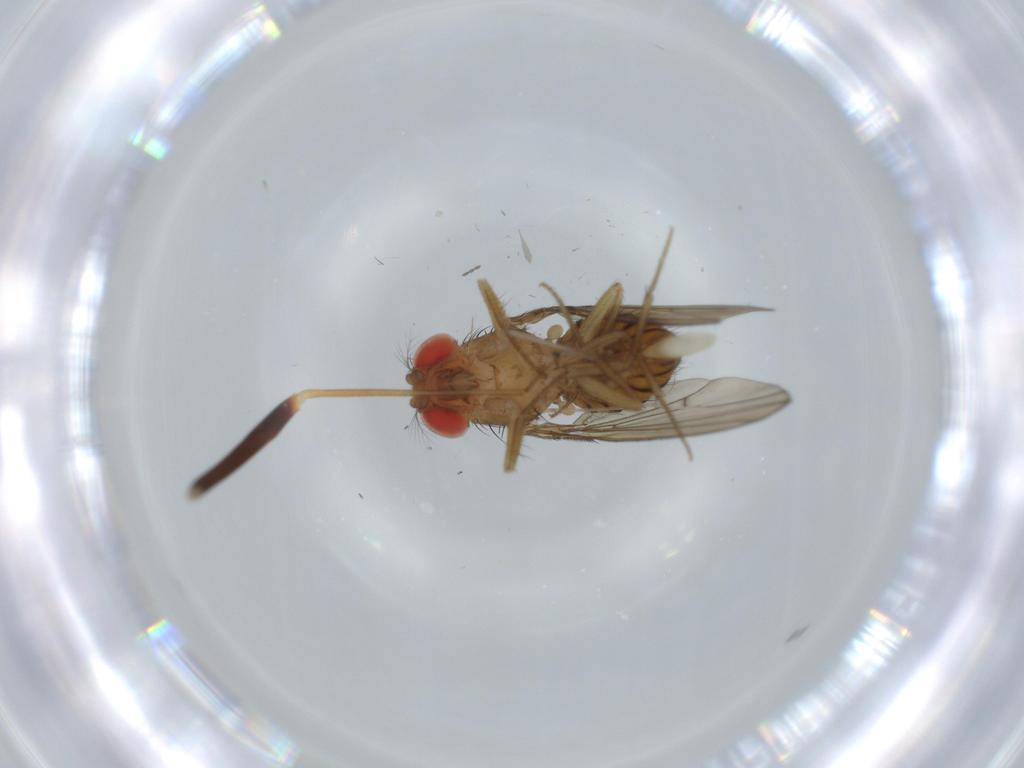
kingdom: Animalia
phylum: Arthropoda
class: Insecta
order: Diptera
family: Drosophilidae
